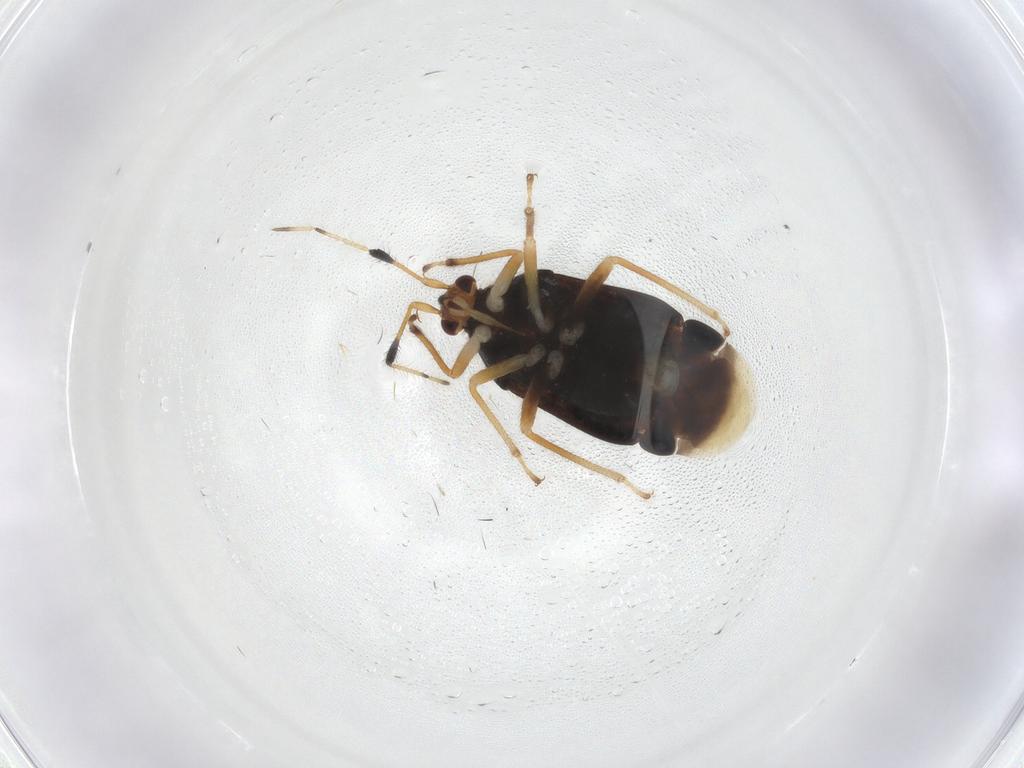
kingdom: Animalia
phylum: Arthropoda
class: Insecta
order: Hemiptera
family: Miridae
